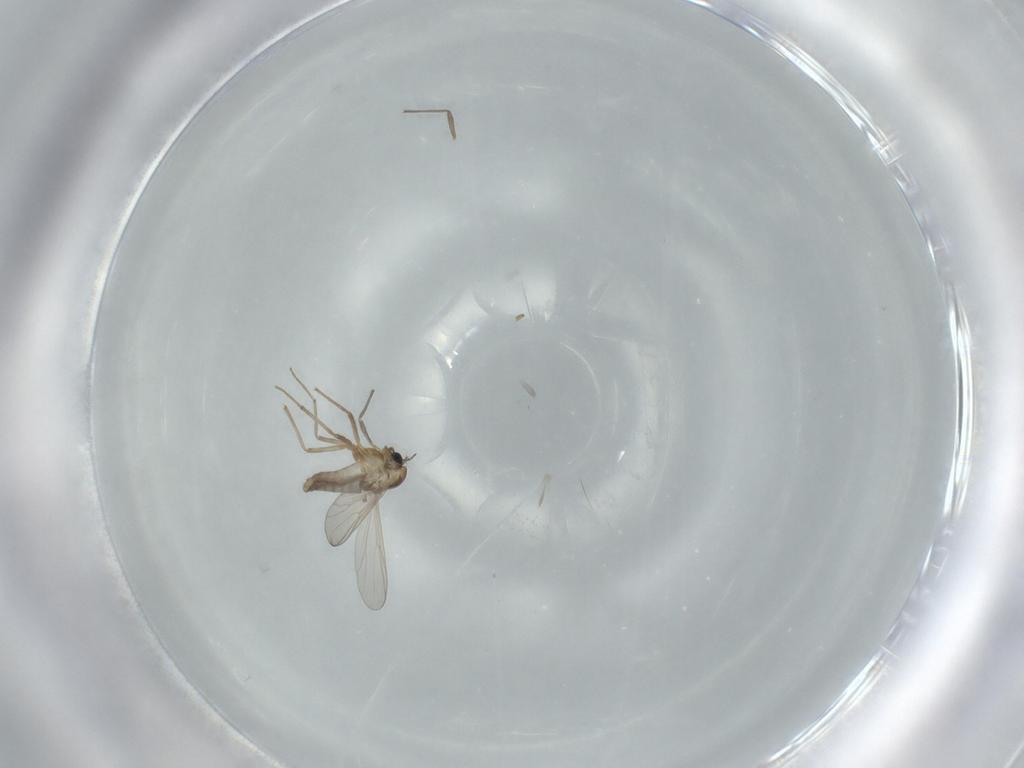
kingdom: Animalia
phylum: Arthropoda
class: Insecta
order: Diptera
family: Chironomidae
